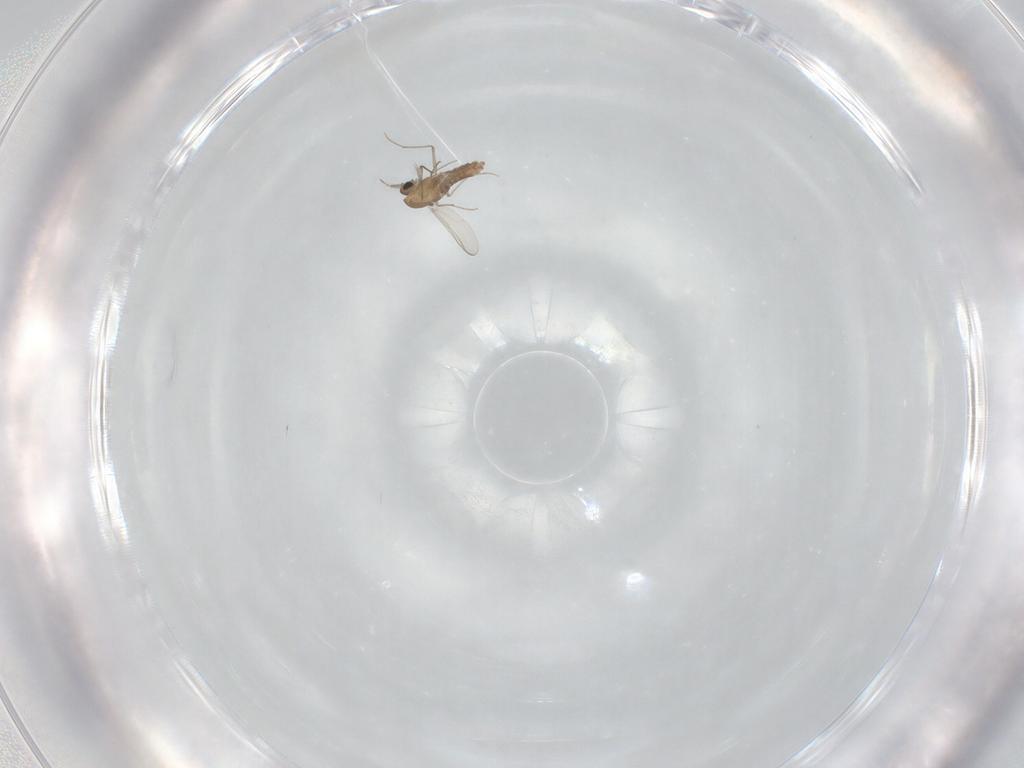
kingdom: Animalia
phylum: Arthropoda
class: Insecta
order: Diptera
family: Chironomidae
